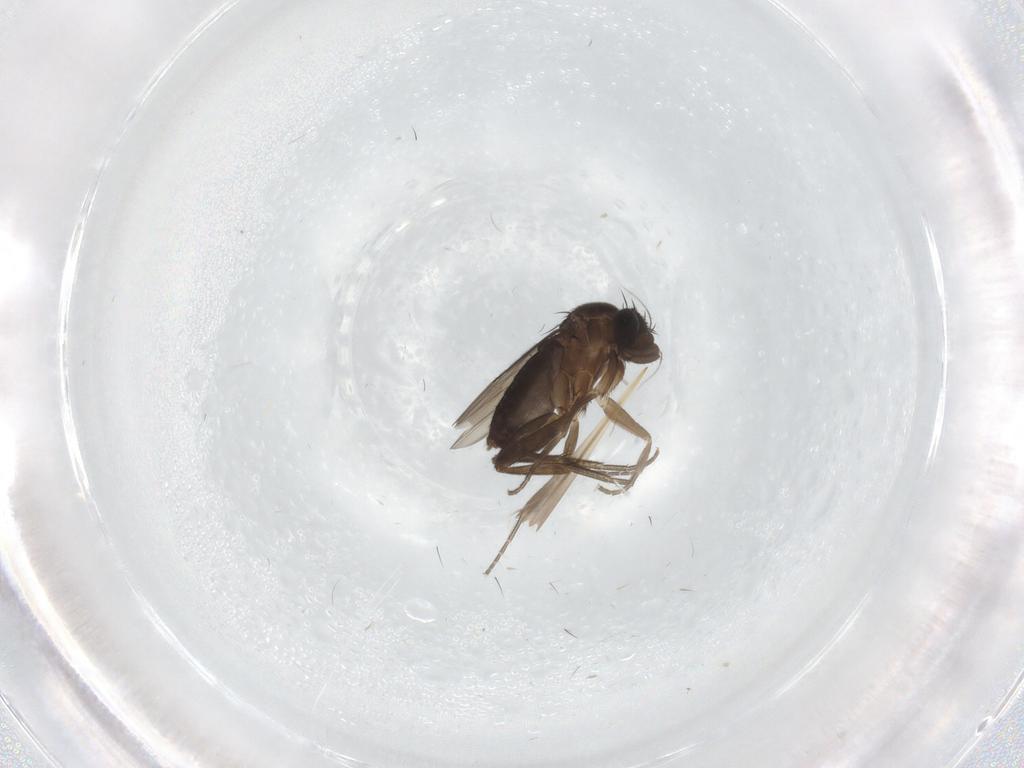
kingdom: Animalia
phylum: Arthropoda
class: Insecta
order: Diptera
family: Phoridae
